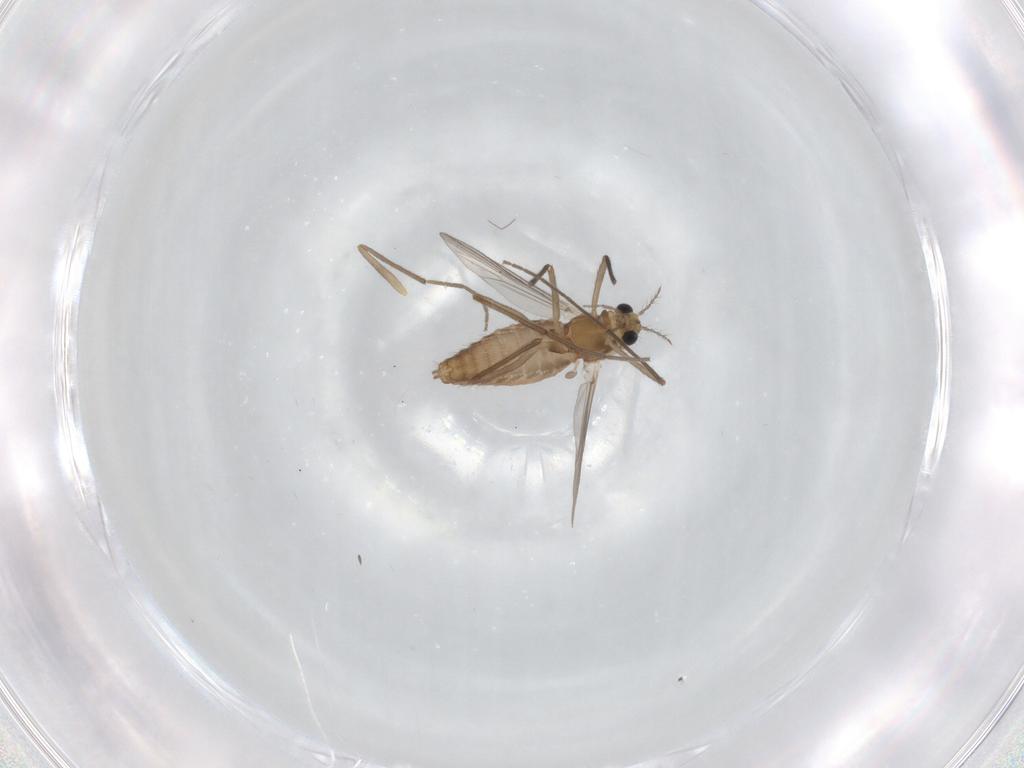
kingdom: Animalia
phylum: Arthropoda
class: Insecta
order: Diptera
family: Chironomidae
